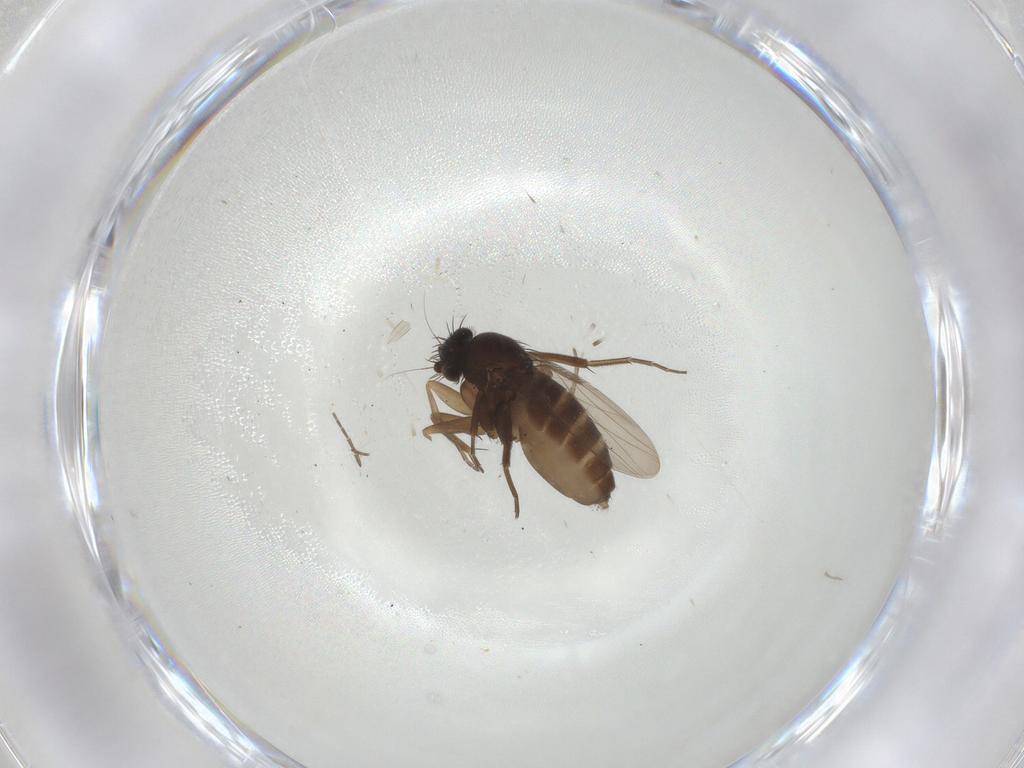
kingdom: Animalia
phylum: Arthropoda
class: Insecta
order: Diptera
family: Phoridae
